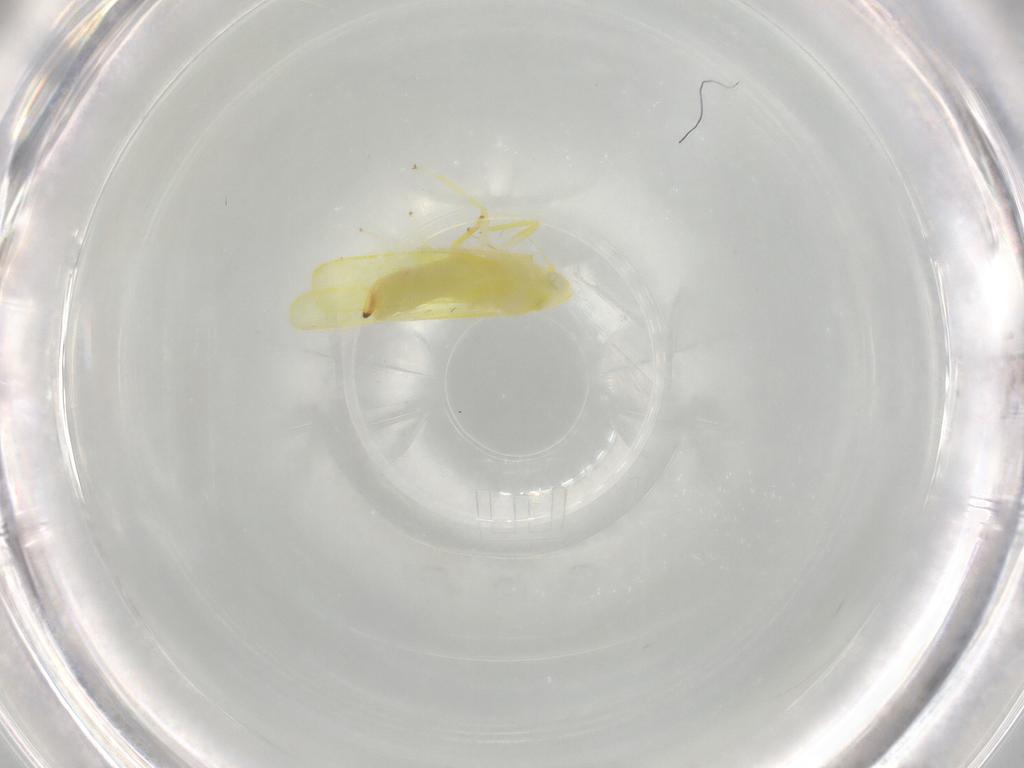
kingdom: Animalia
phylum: Arthropoda
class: Insecta
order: Hemiptera
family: Cicadellidae
